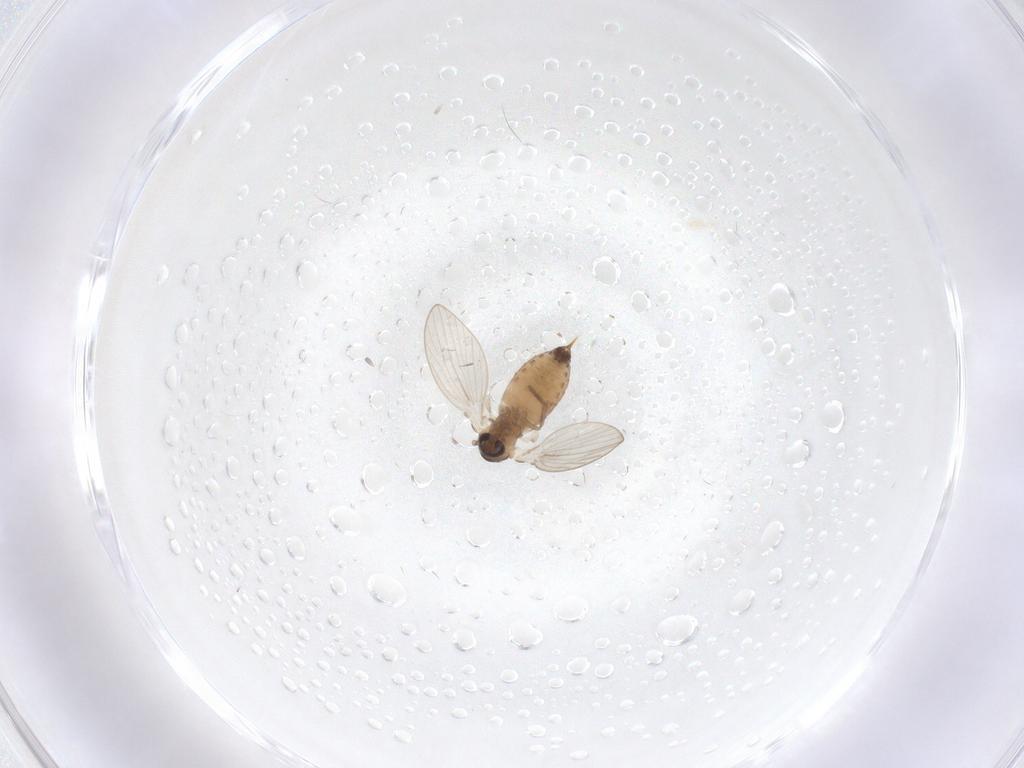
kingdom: Animalia
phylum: Arthropoda
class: Insecta
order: Diptera
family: Psychodidae
